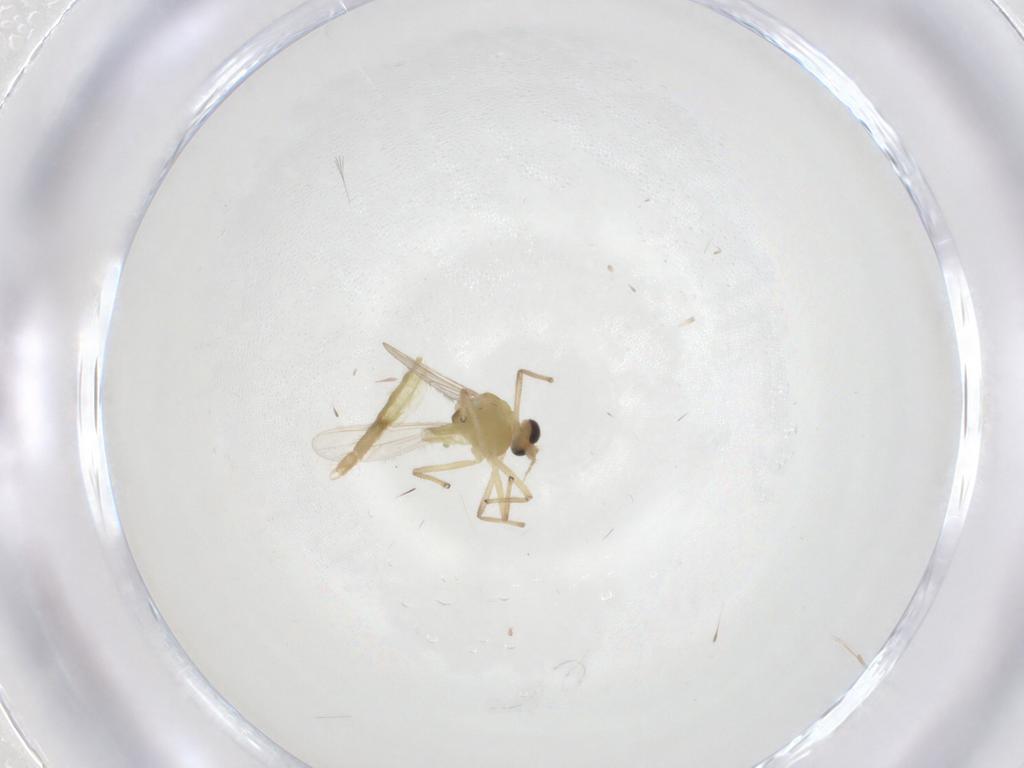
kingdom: Animalia
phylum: Arthropoda
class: Insecta
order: Diptera
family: Chironomidae
